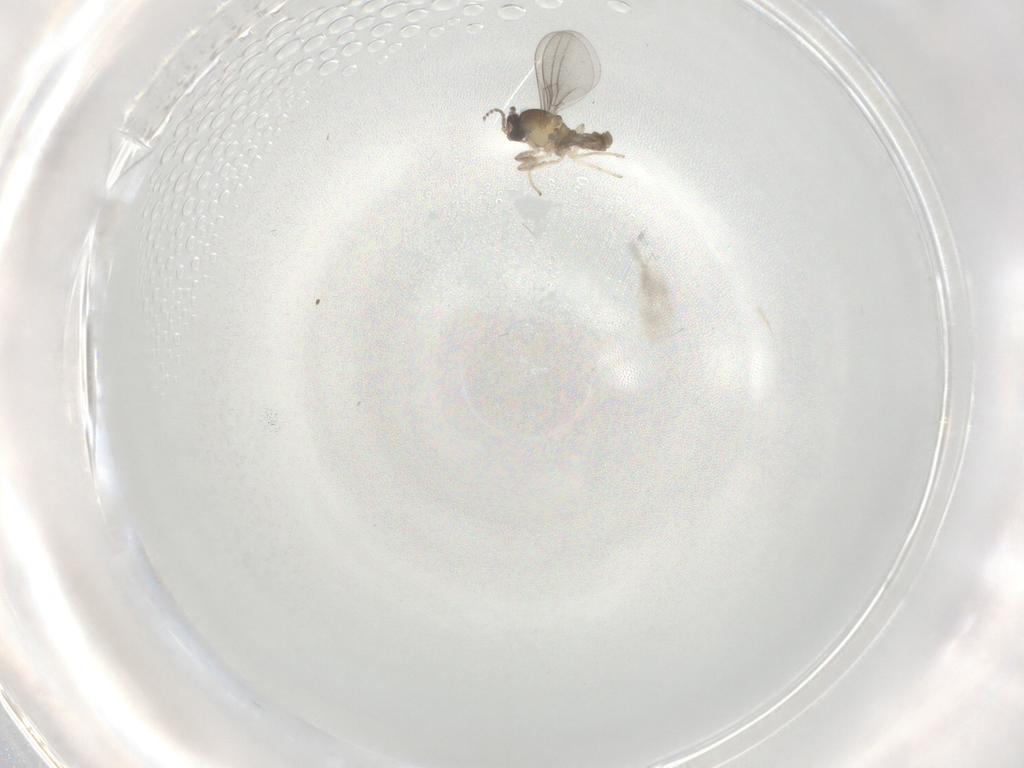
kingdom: Animalia
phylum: Arthropoda
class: Insecta
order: Diptera
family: Cecidomyiidae
